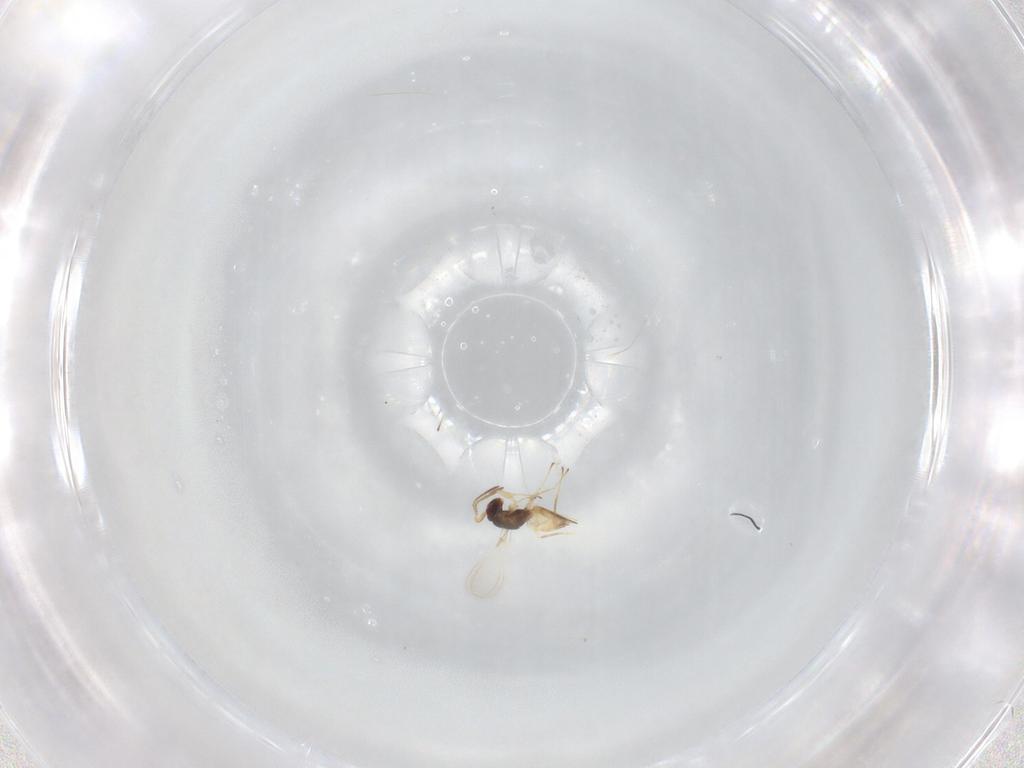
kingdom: Animalia
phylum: Arthropoda
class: Insecta
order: Hymenoptera
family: Mymaridae
